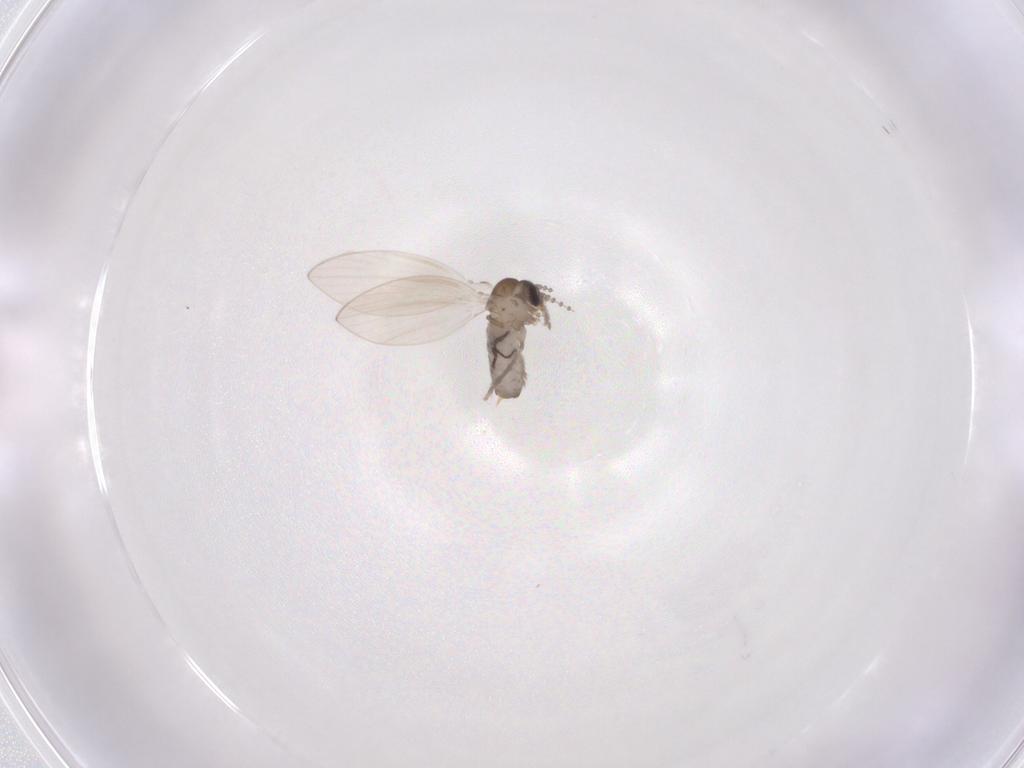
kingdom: Animalia
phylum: Arthropoda
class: Insecta
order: Diptera
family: Psychodidae
